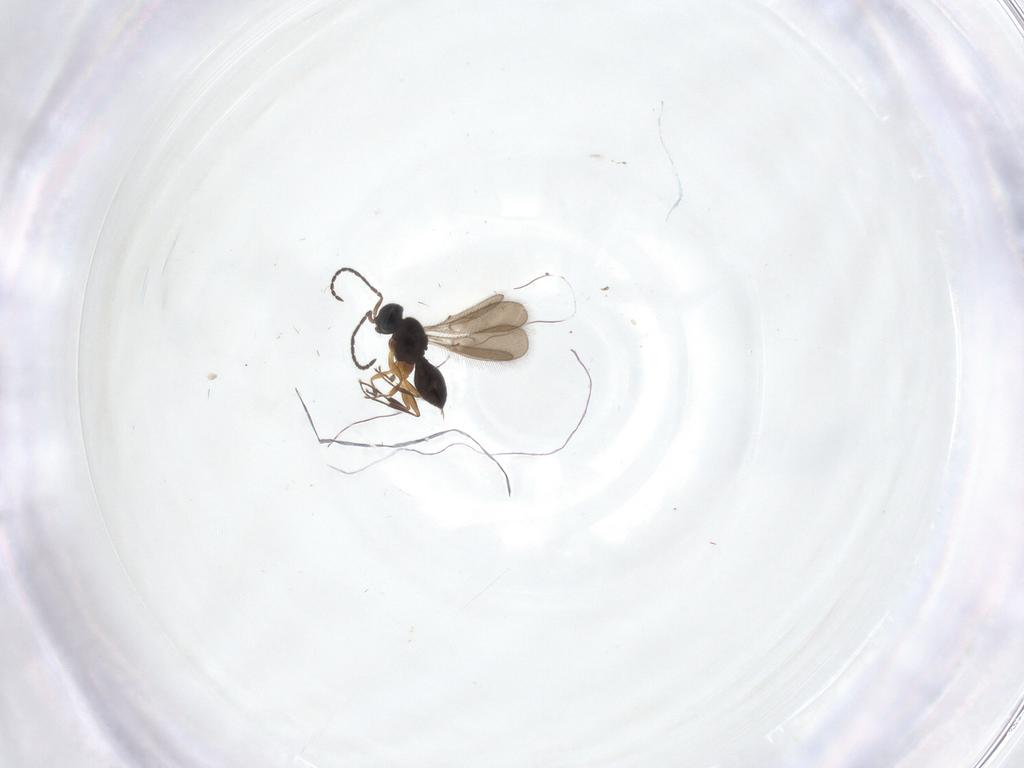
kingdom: Animalia
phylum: Arthropoda
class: Insecta
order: Hymenoptera
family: Scelionidae
